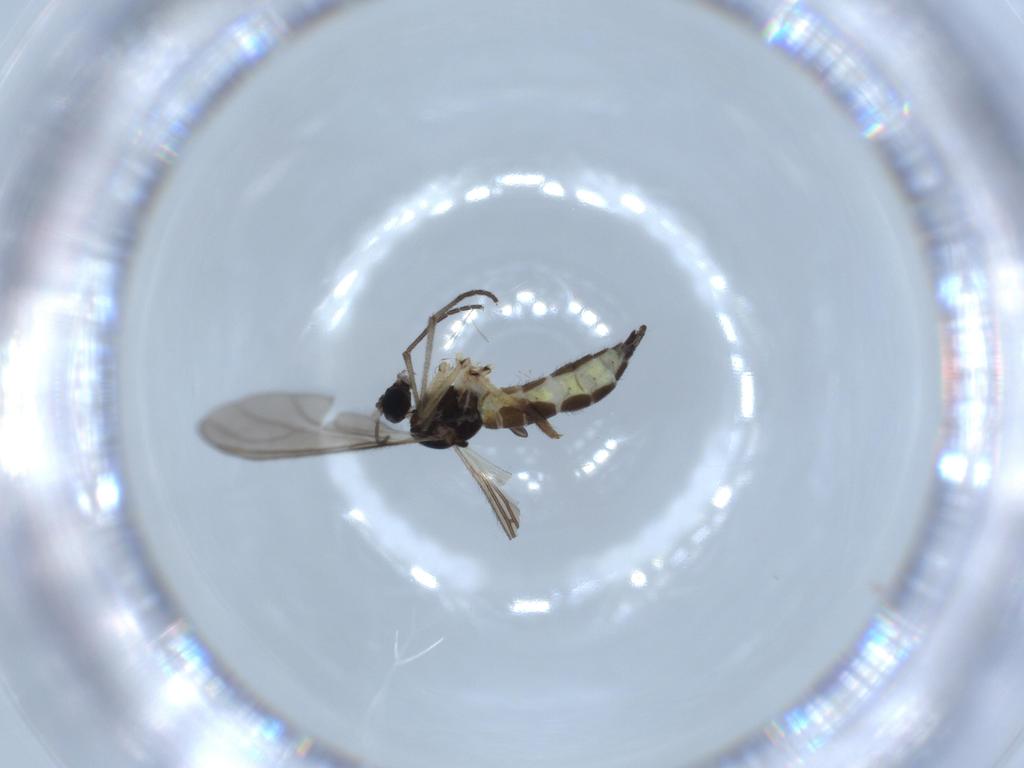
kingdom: Animalia
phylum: Arthropoda
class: Insecta
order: Diptera
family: Sciaridae
